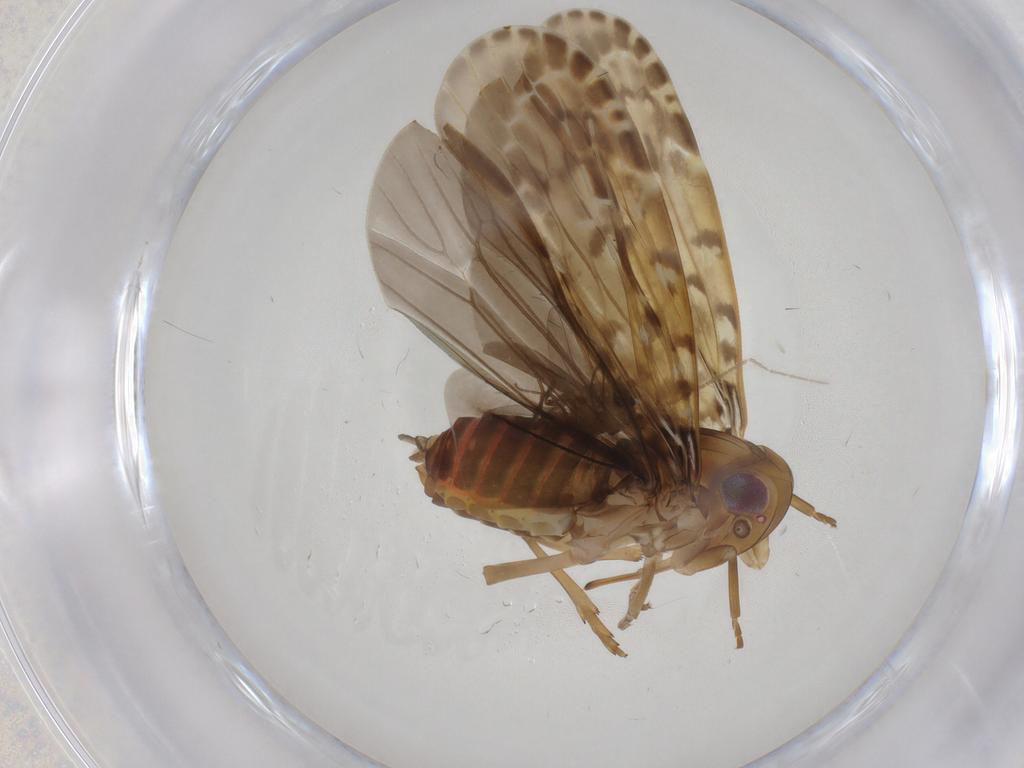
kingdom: Animalia
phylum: Arthropoda
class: Insecta
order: Hemiptera
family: Achilidae
